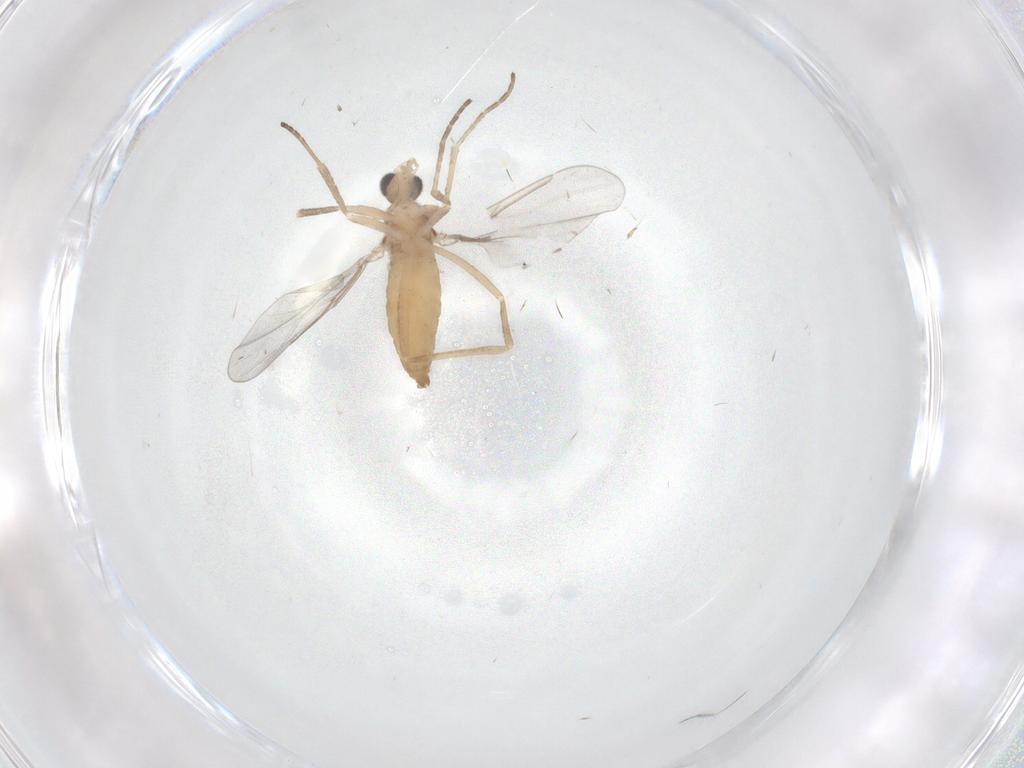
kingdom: Animalia
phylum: Arthropoda
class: Insecta
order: Diptera
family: Cecidomyiidae
